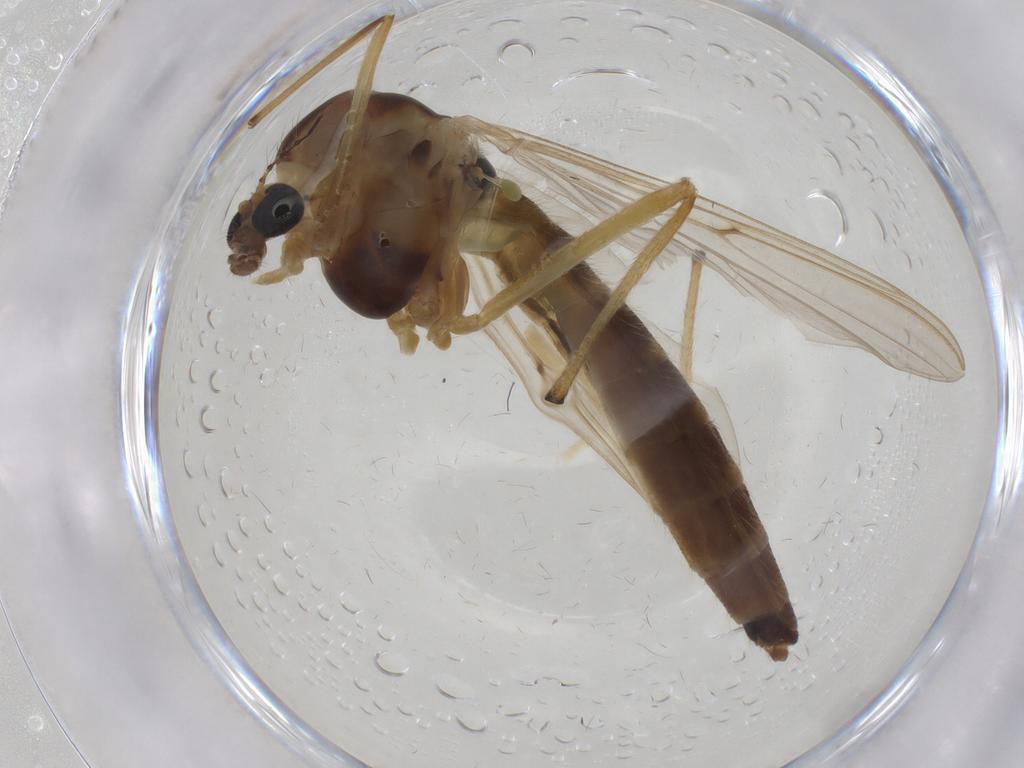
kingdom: Animalia
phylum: Arthropoda
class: Insecta
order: Diptera
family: Chironomidae
